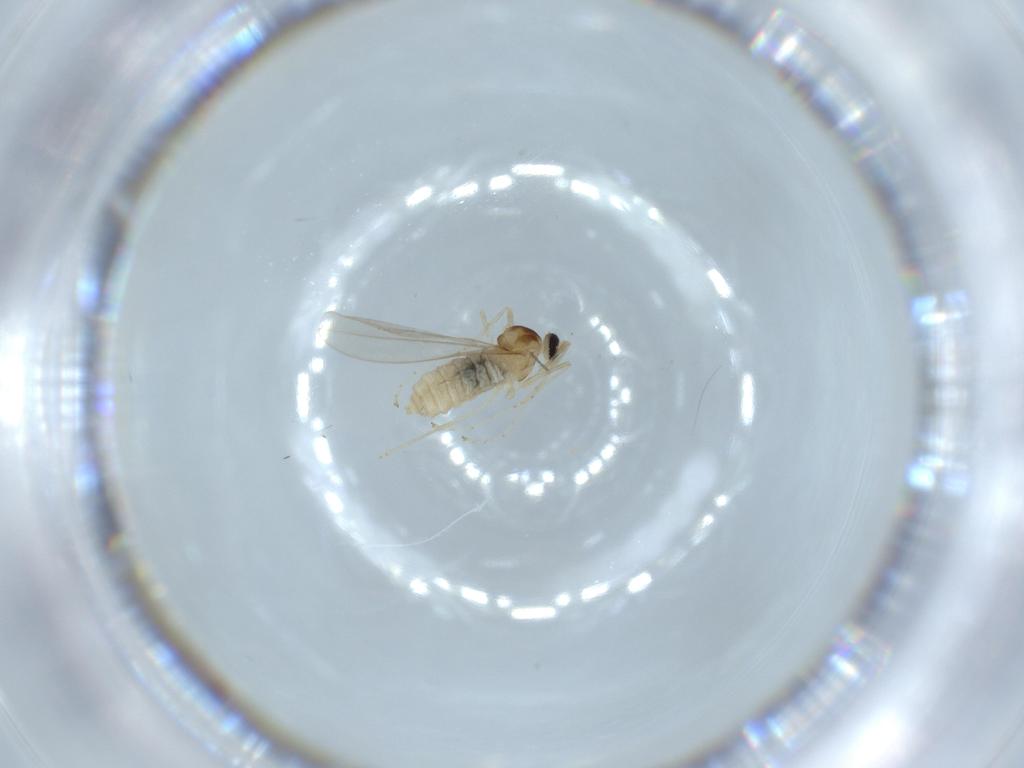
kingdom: Animalia
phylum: Arthropoda
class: Insecta
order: Diptera
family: Cecidomyiidae
